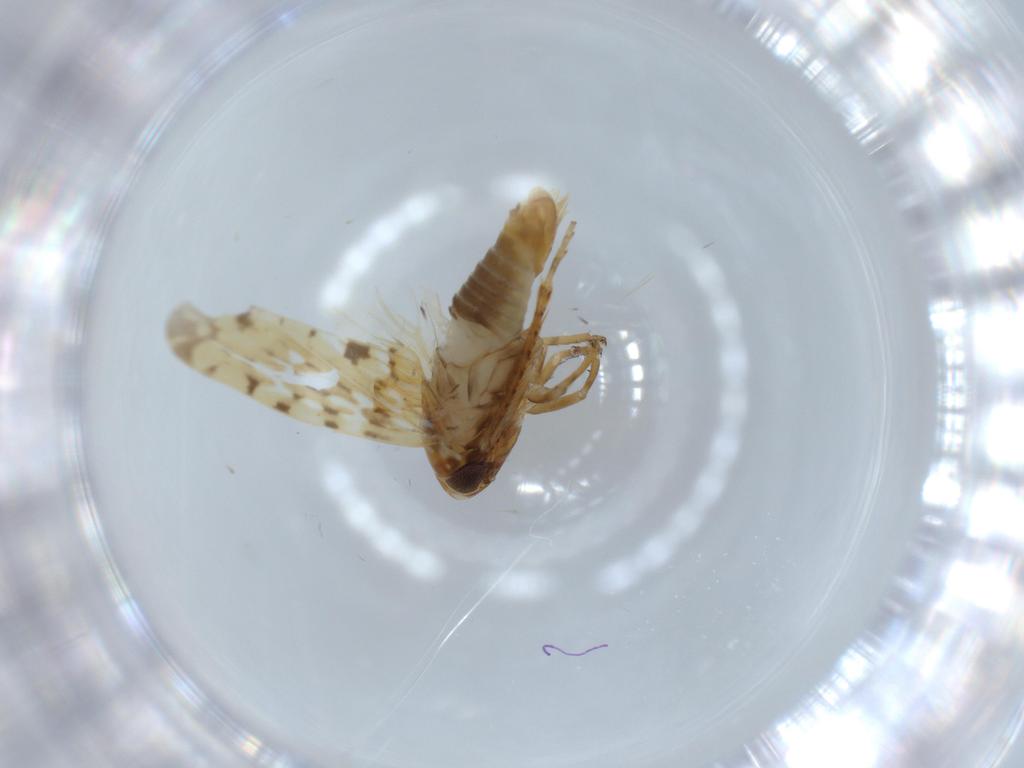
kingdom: Animalia
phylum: Arthropoda
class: Insecta
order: Hemiptera
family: Cicadellidae
